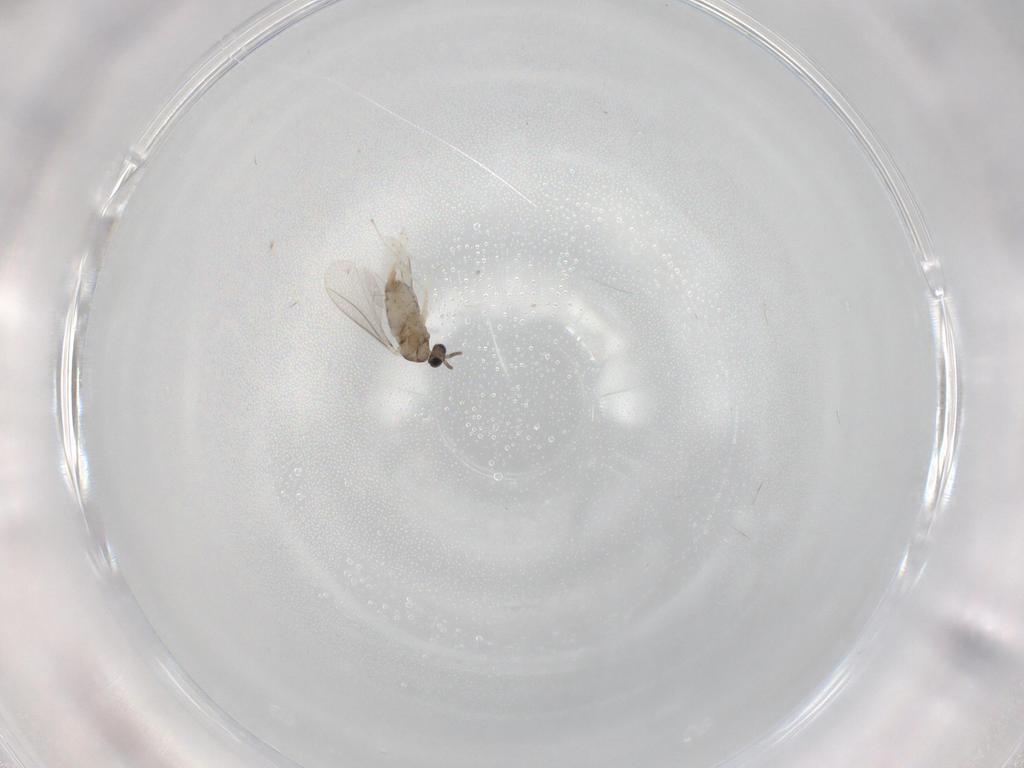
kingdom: Animalia
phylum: Arthropoda
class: Insecta
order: Diptera
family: Cecidomyiidae
